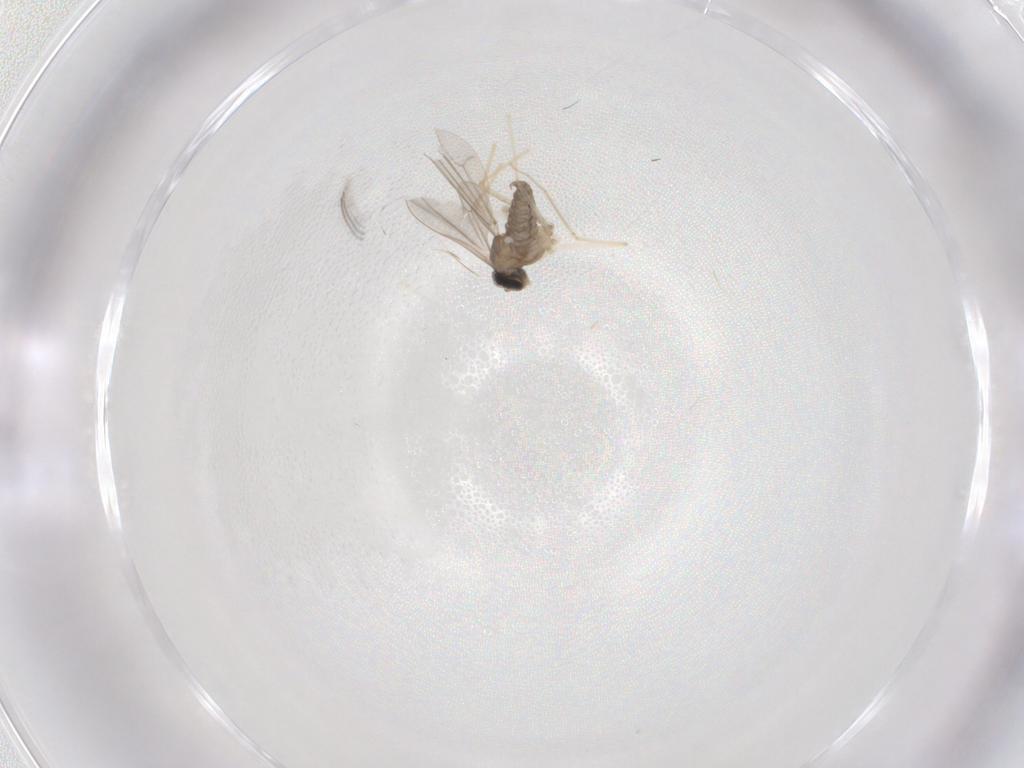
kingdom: Animalia
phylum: Arthropoda
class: Insecta
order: Diptera
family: Cecidomyiidae
